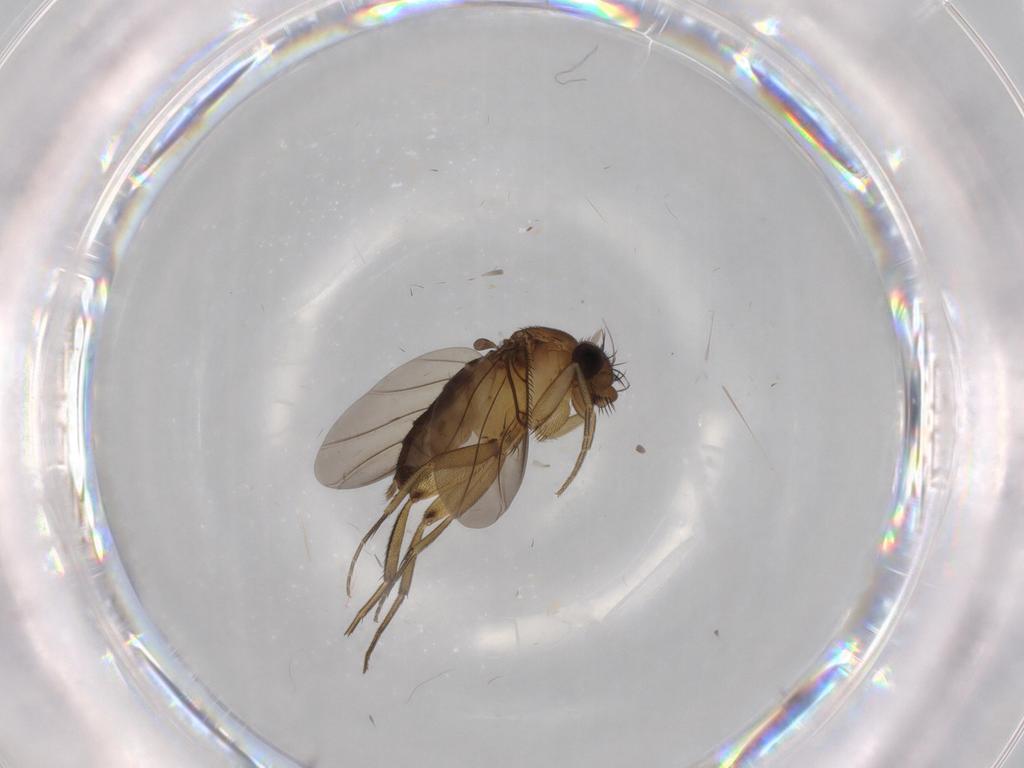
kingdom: Animalia
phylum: Arthropoda
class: Insecta
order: Diptera
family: Phoridae
